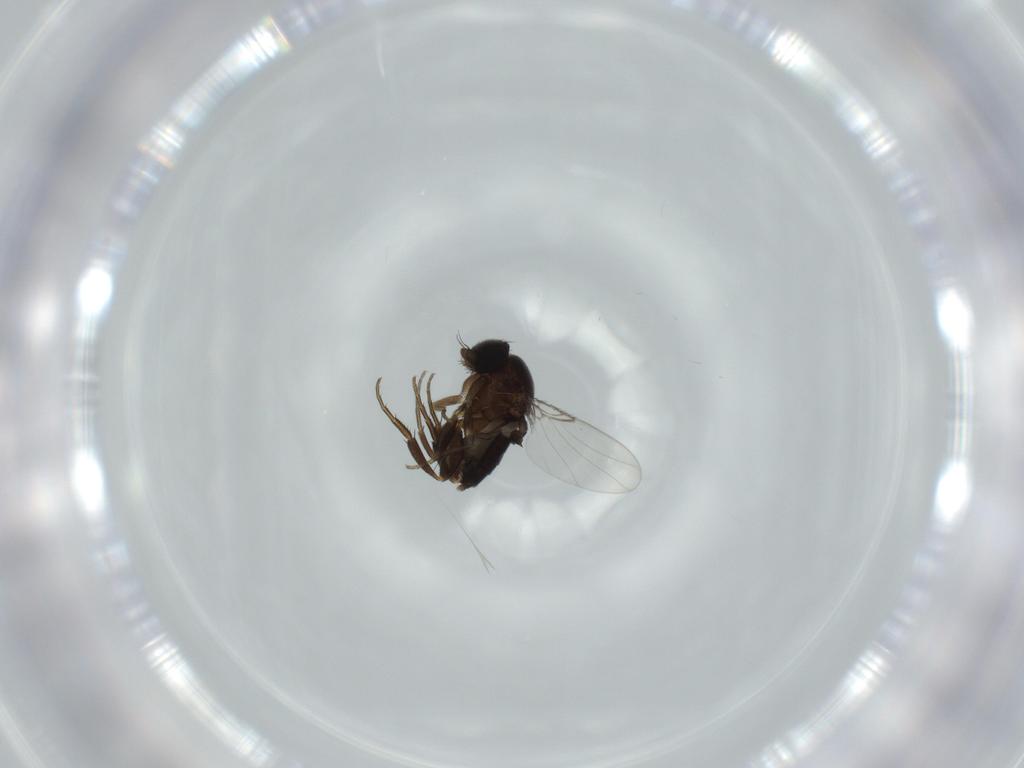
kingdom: Animalia
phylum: Arthropoda
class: Insecta
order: Diptera
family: Phoridae
